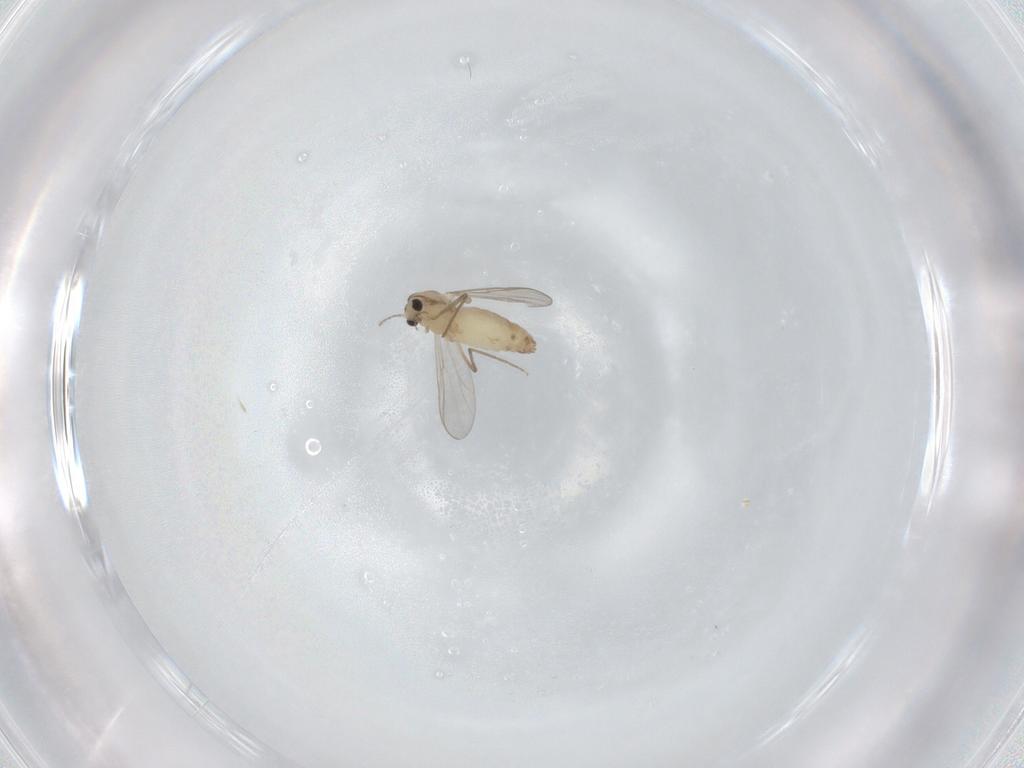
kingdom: Animalia
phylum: Arthropoda
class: Insecta
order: Diptera
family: Chironomidae
